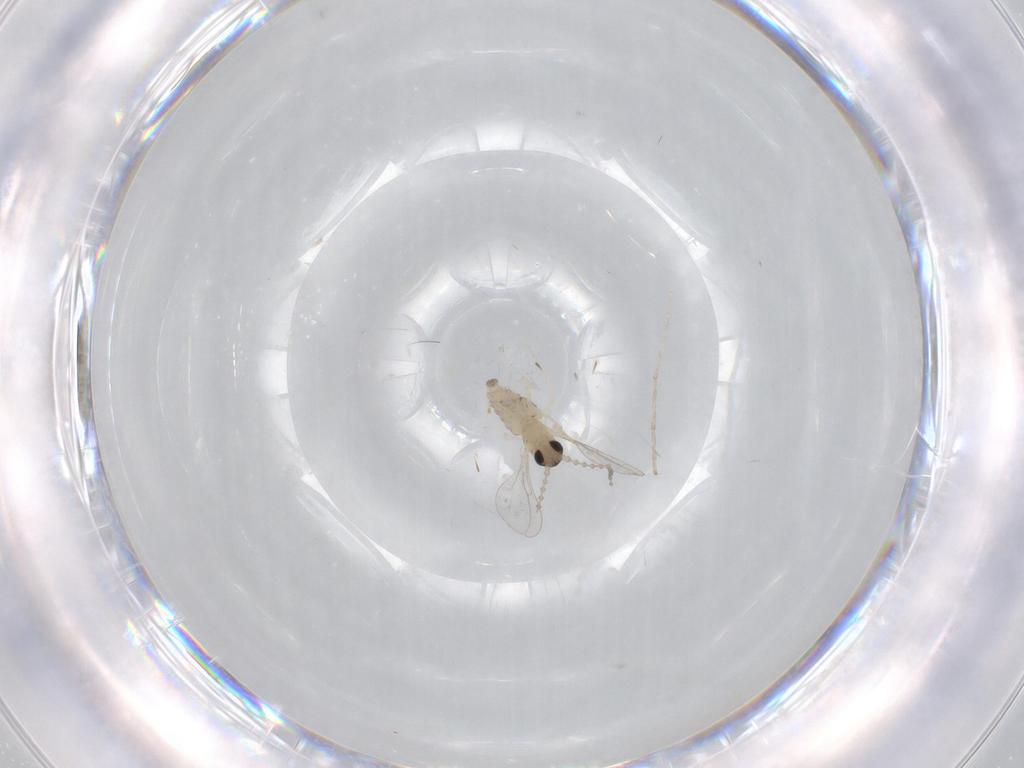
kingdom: Animalia
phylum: Arthropoda
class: Insecta
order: Diptera
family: Cecidomyiidae
